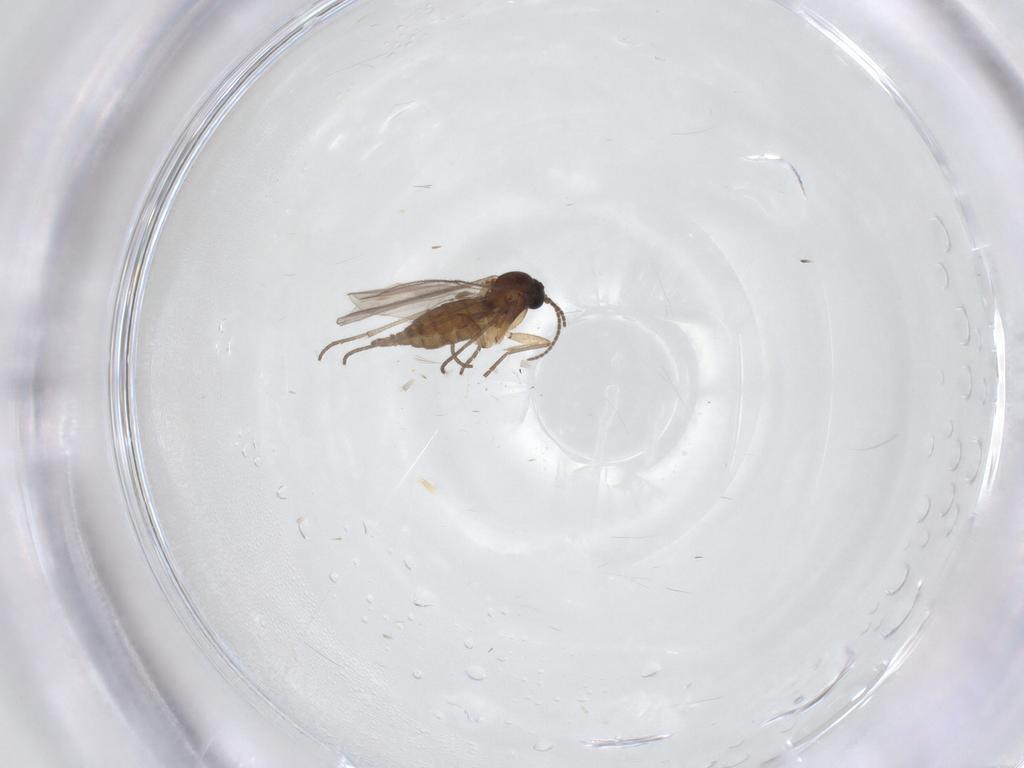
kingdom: Animalia
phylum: Arthropoda
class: Insecta
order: Diptera
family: Sciaridae
